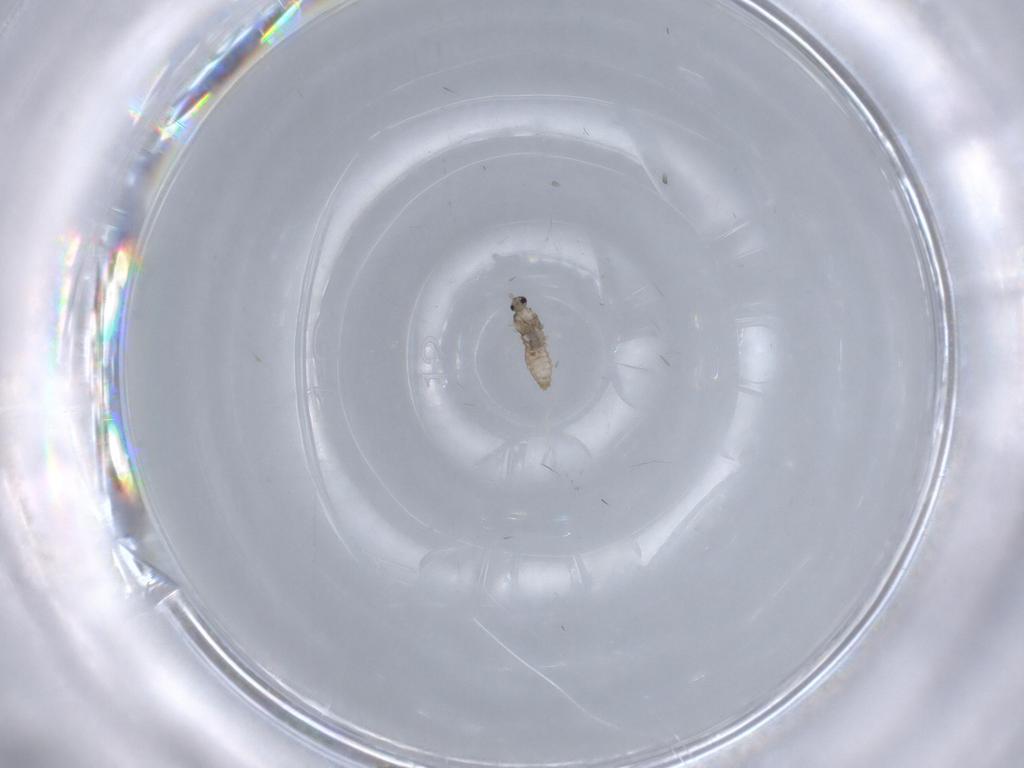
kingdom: Animalia
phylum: Arthropoda
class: Insecta
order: Diptera
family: Cecidomyiidae
